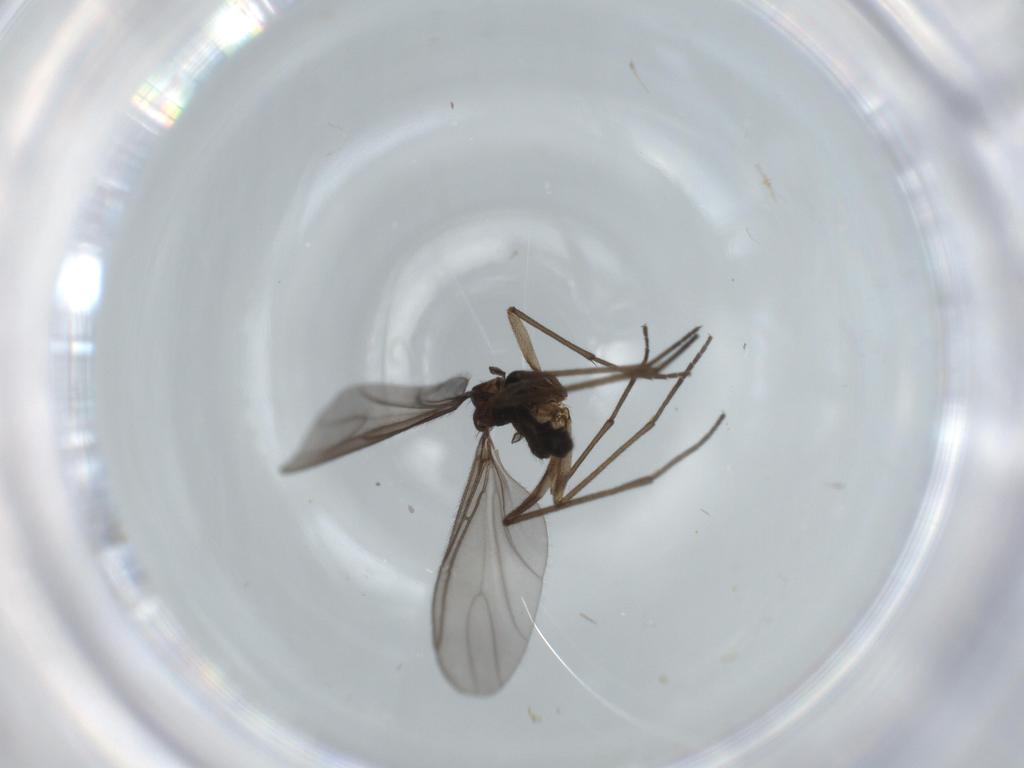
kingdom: Animalia
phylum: Arthropoda
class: Insecta
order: Diptera
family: Sciaridae
